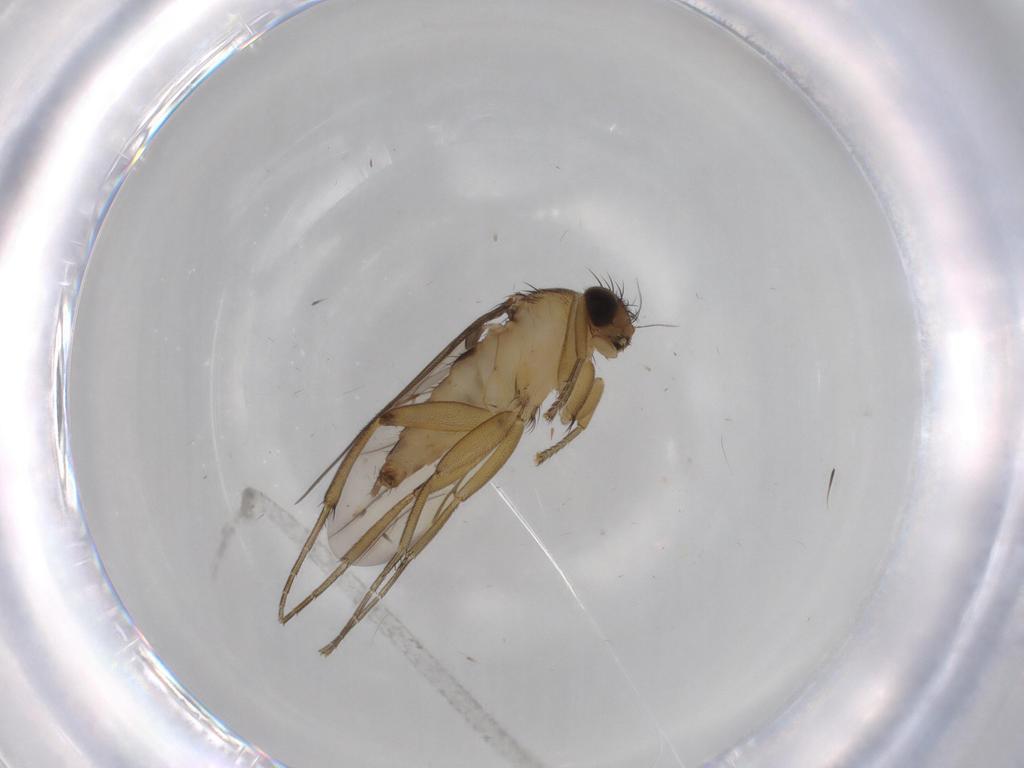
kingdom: Animalia
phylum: Arthropoda
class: Insecta
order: Diptera
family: Phoridae
